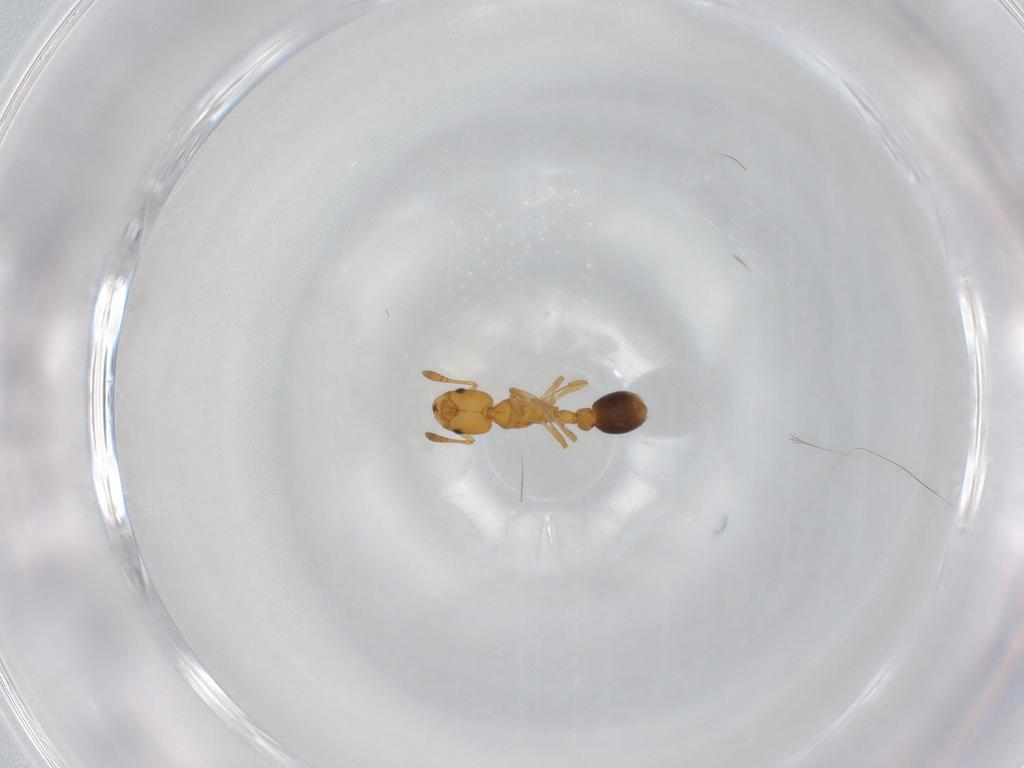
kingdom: Animalia
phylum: Arthropoda
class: Insecta
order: Hymenoptera
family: Formicidae
